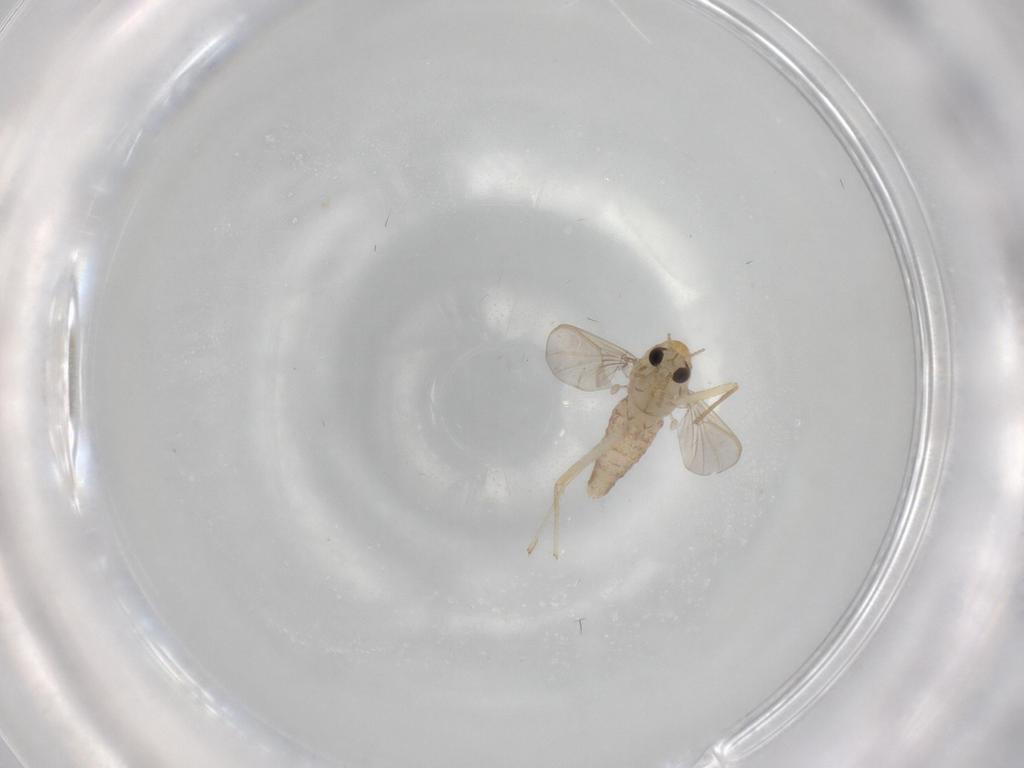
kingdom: Animalia
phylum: Arthropoda
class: Insecta
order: Diptera
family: Chironomidae
